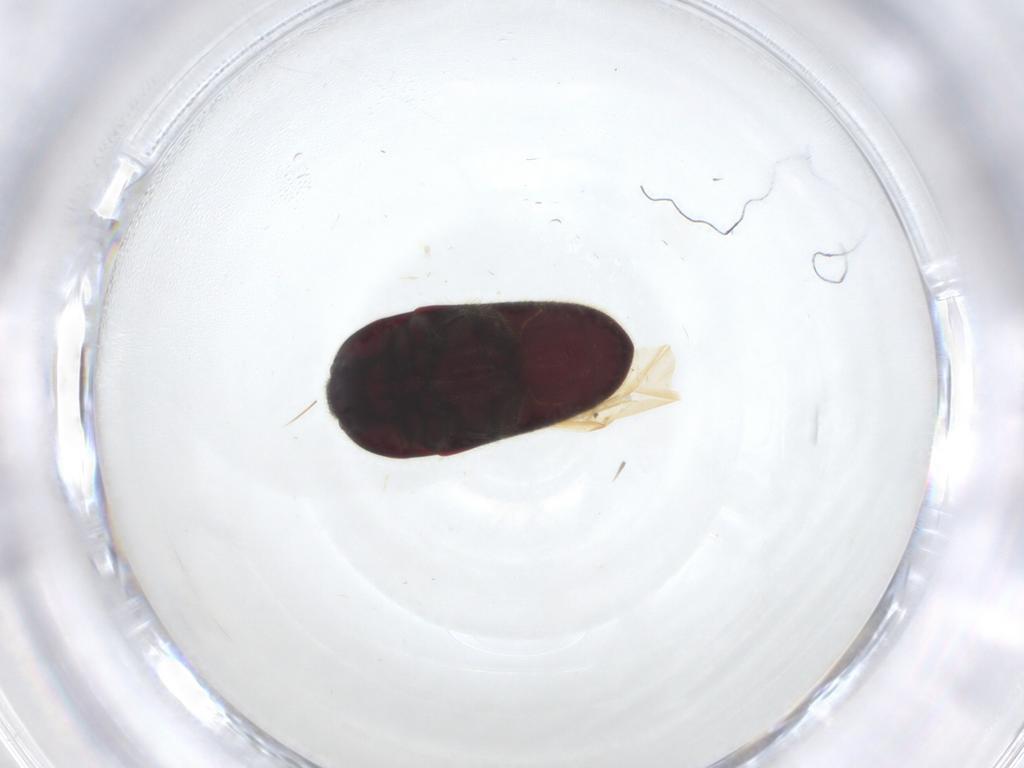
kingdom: Animalia
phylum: Arthropoda
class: Insecta
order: Coleoptera
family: Throscidae
